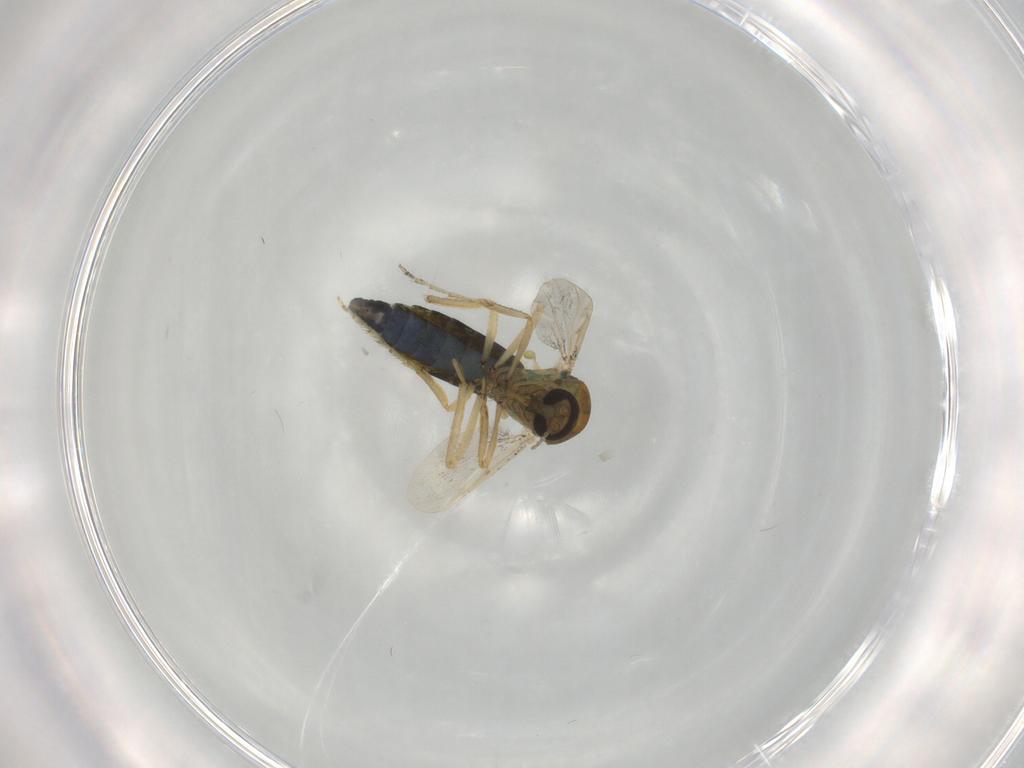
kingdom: Animalia
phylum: Arthropoda
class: Insecta
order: Diptera
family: Ceratopogonidae
